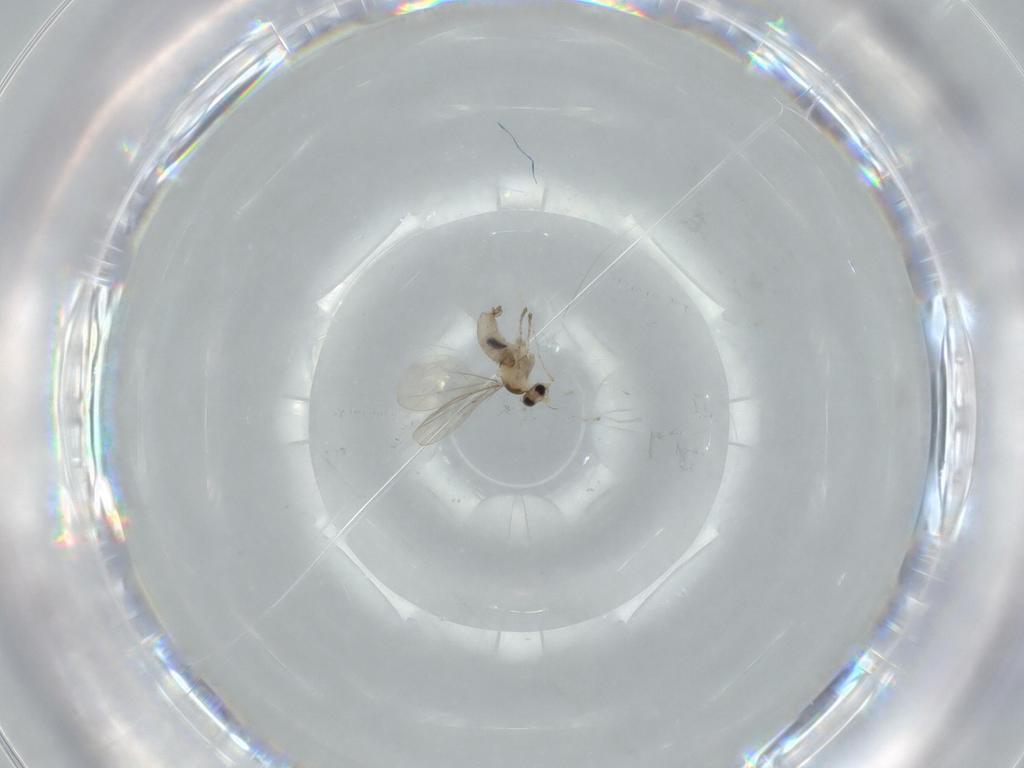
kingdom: Animalia
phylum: Arthropoda
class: Insecta
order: Diptera
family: Cecidomyiidae
